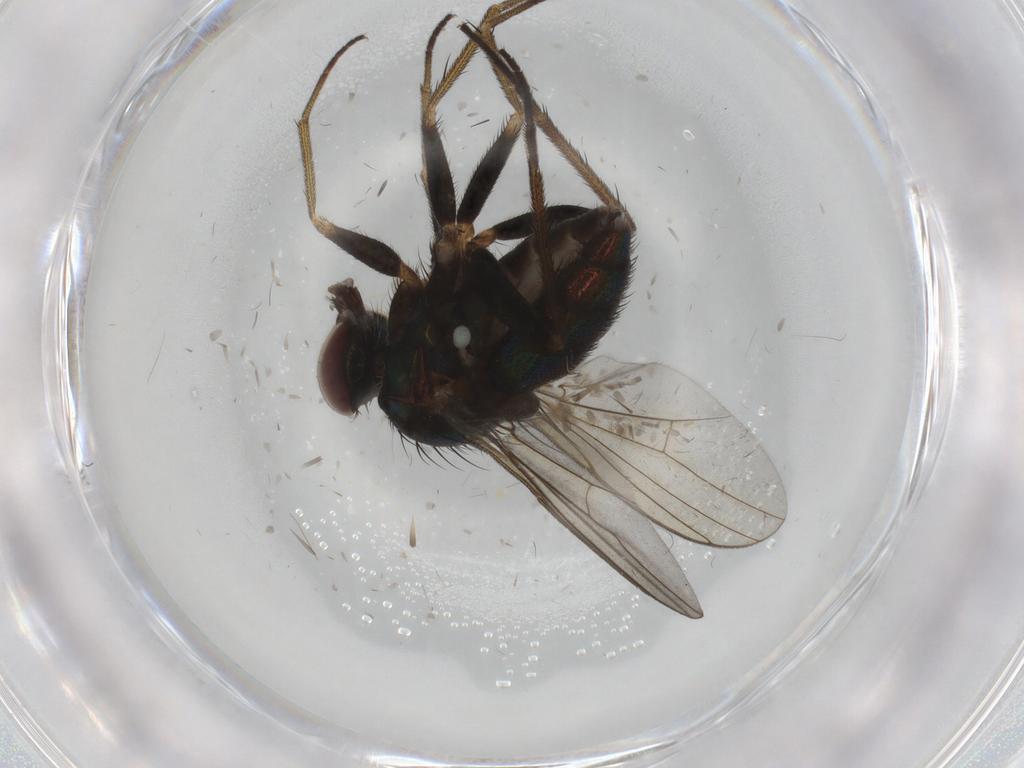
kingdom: Animalia
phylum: Arthropoda
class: Insecta
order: Diptera
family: Dolichopodidae
